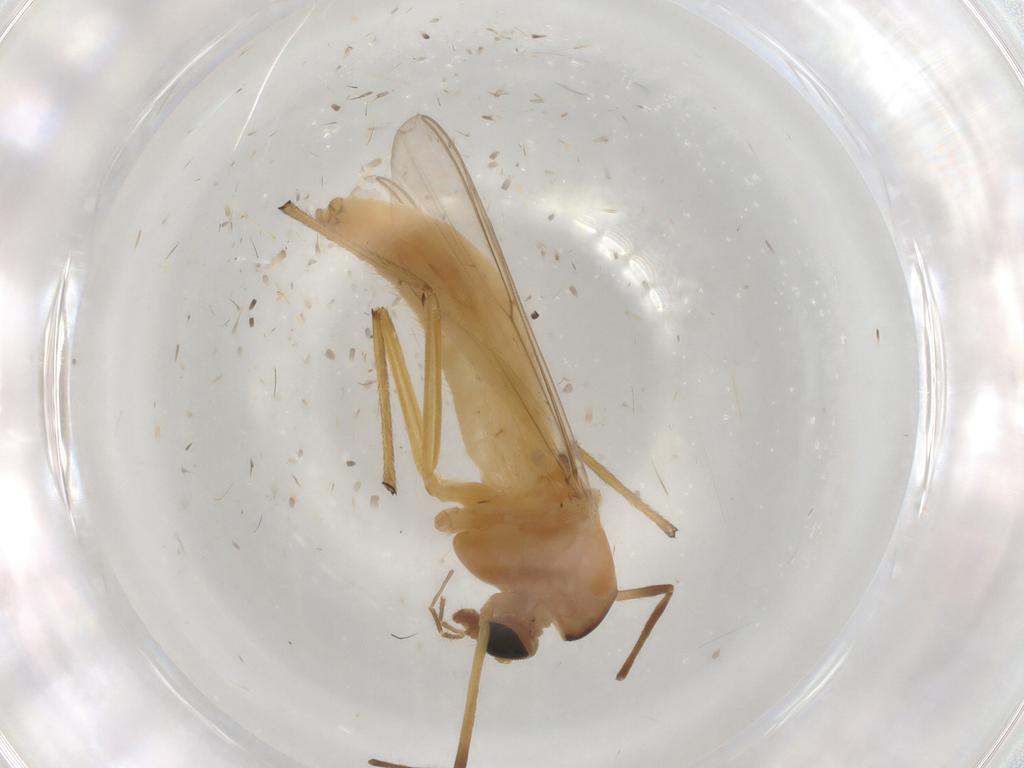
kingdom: Animalia
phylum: Arthropoda
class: Insecta
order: Diptera
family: Chironomidae
